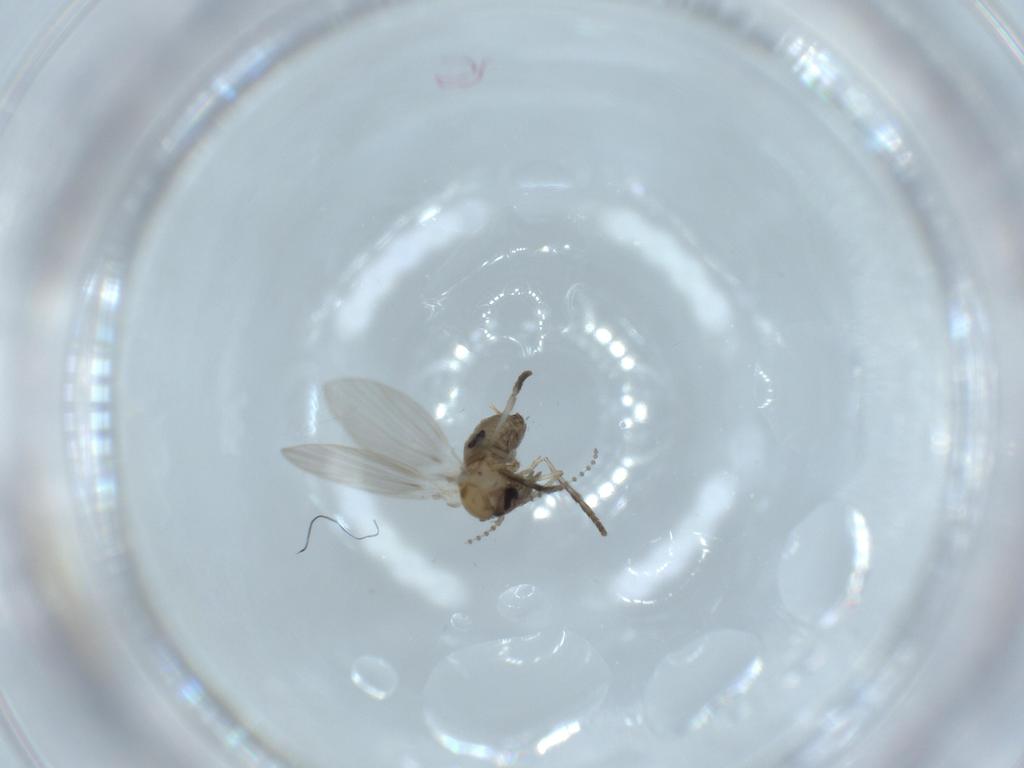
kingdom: Animalia
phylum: Arthropoda
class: Insecta
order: Diptera
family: Psychodidae
